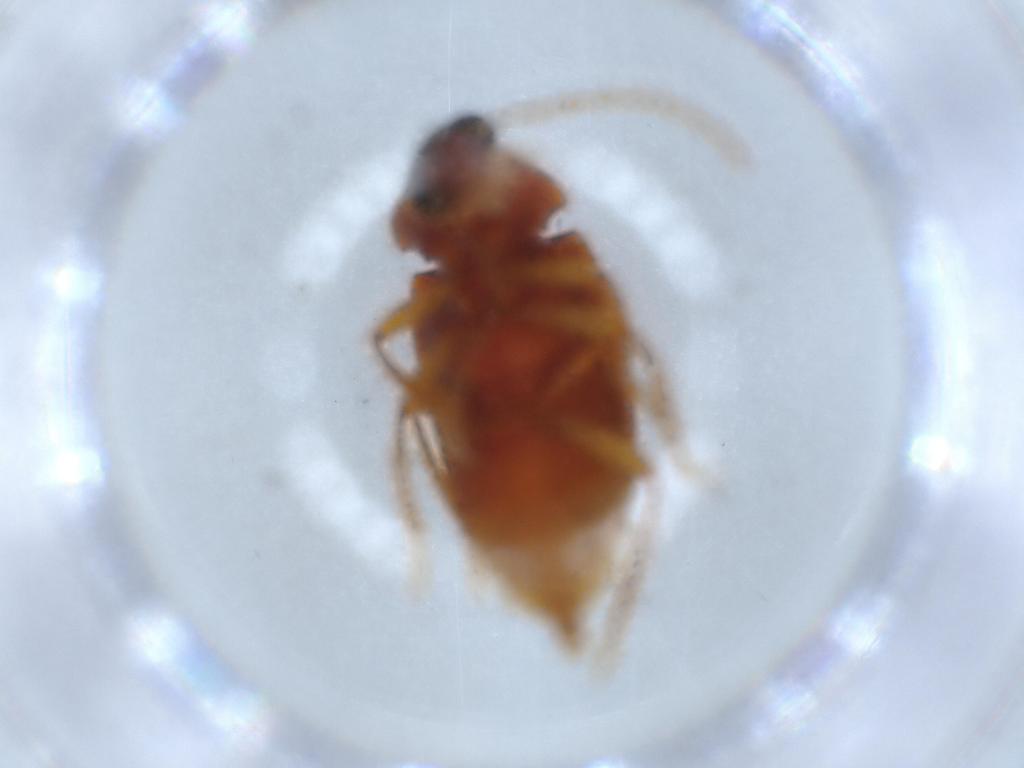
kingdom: Animalia
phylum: Arthropoda
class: Insecta
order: Coleoptera
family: Ptilodactylidae
